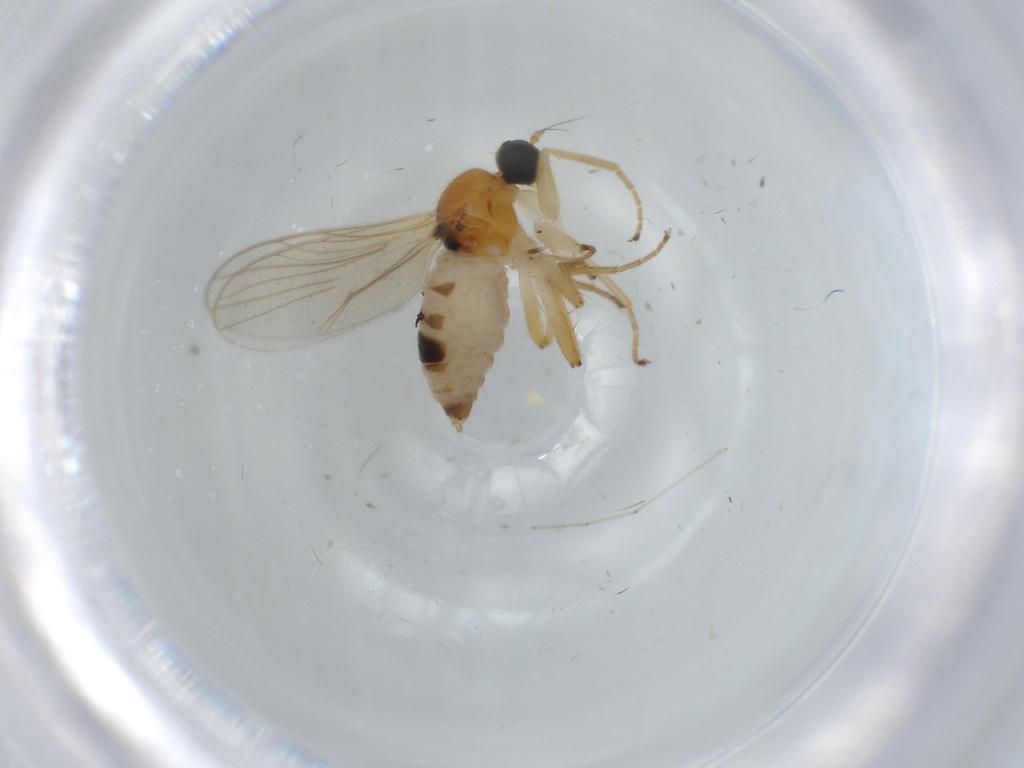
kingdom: Animalia
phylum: Arthropoda
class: Insecta
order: Diptera
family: Hybotidae
